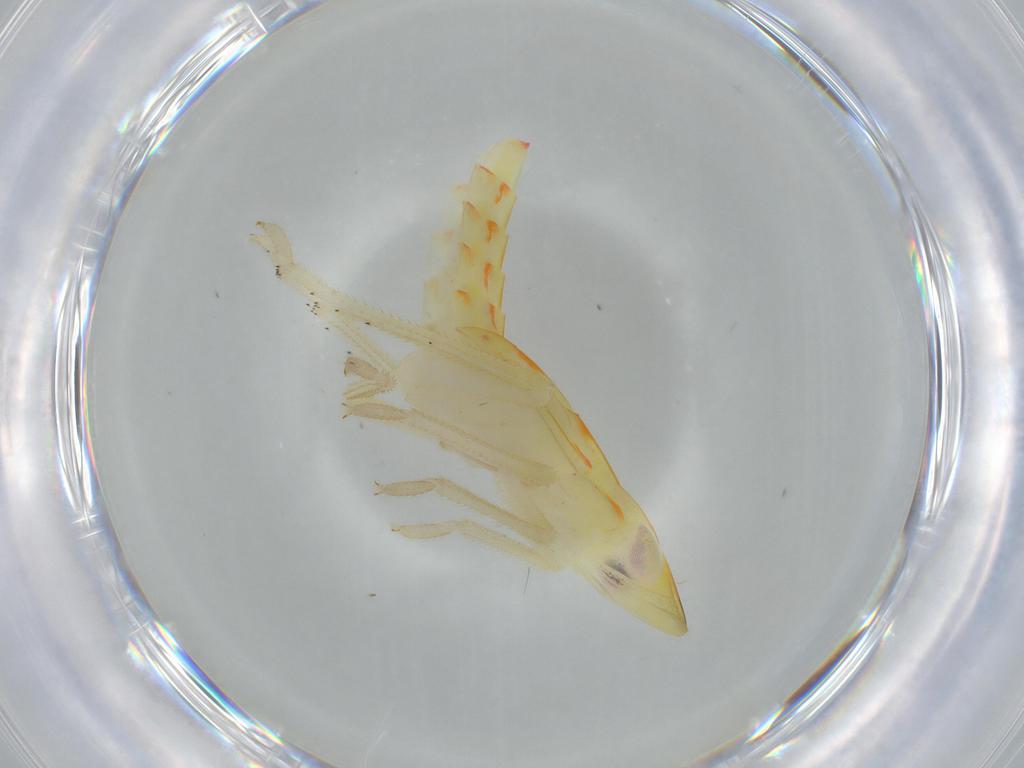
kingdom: Animalia
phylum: Arthropoda
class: Insecta
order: Hemiptera
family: Tropiduchidae
